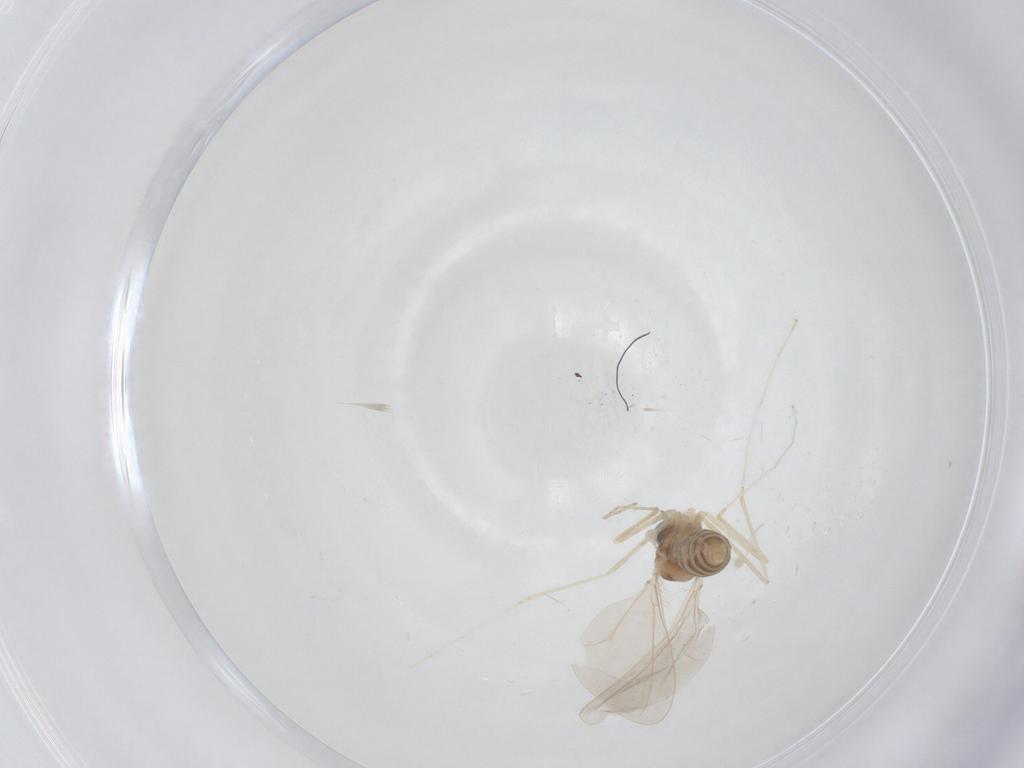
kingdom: Animalia
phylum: Arthropoda
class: Insecta
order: Diptera
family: Cecidomyiidae
